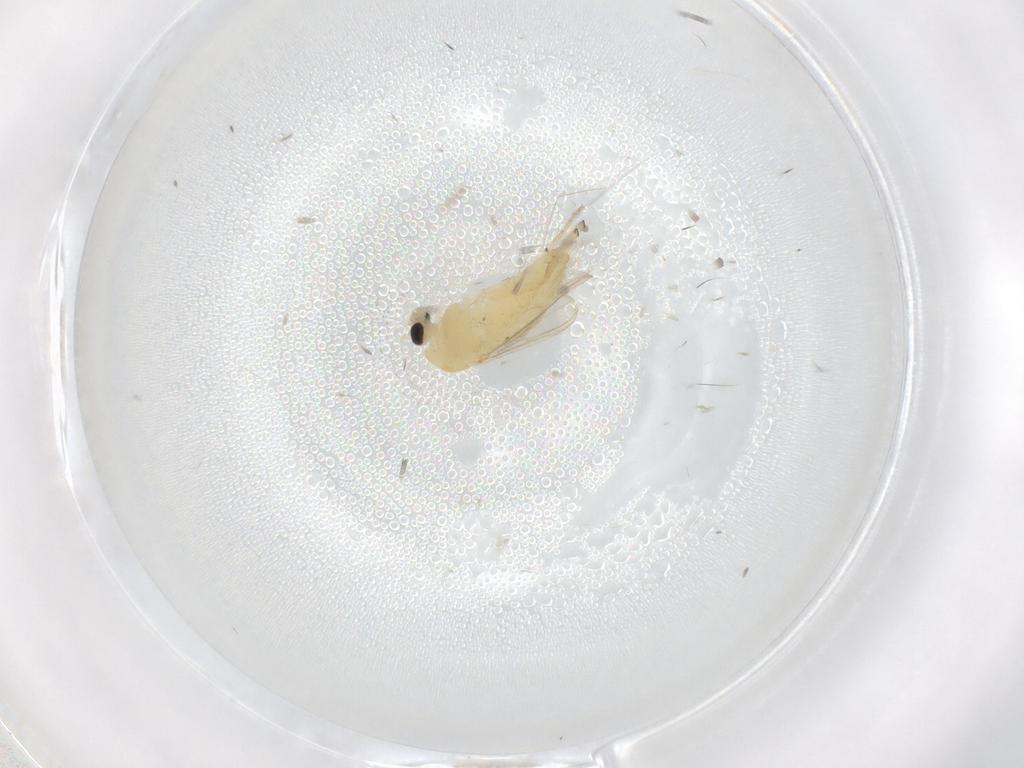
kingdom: Animalia
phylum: Arthropoda
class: Insecta
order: Diptera
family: Chironomidae
